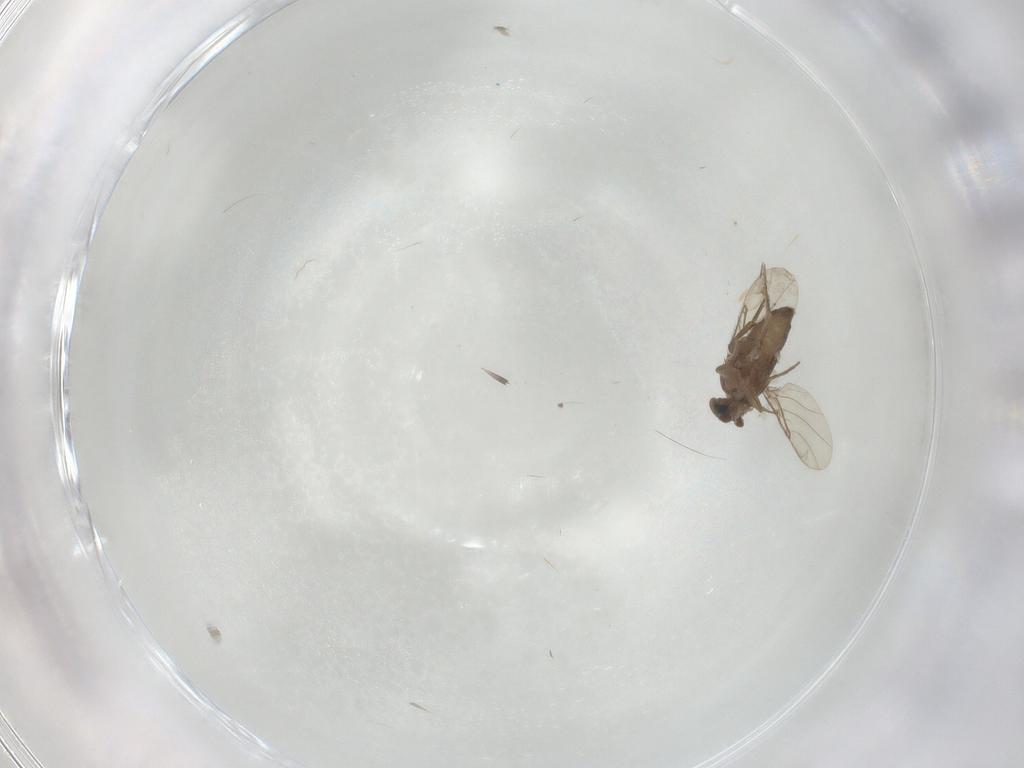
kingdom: Animalia
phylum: Arthropoda
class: Insecta
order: Diptera
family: Phoridae
